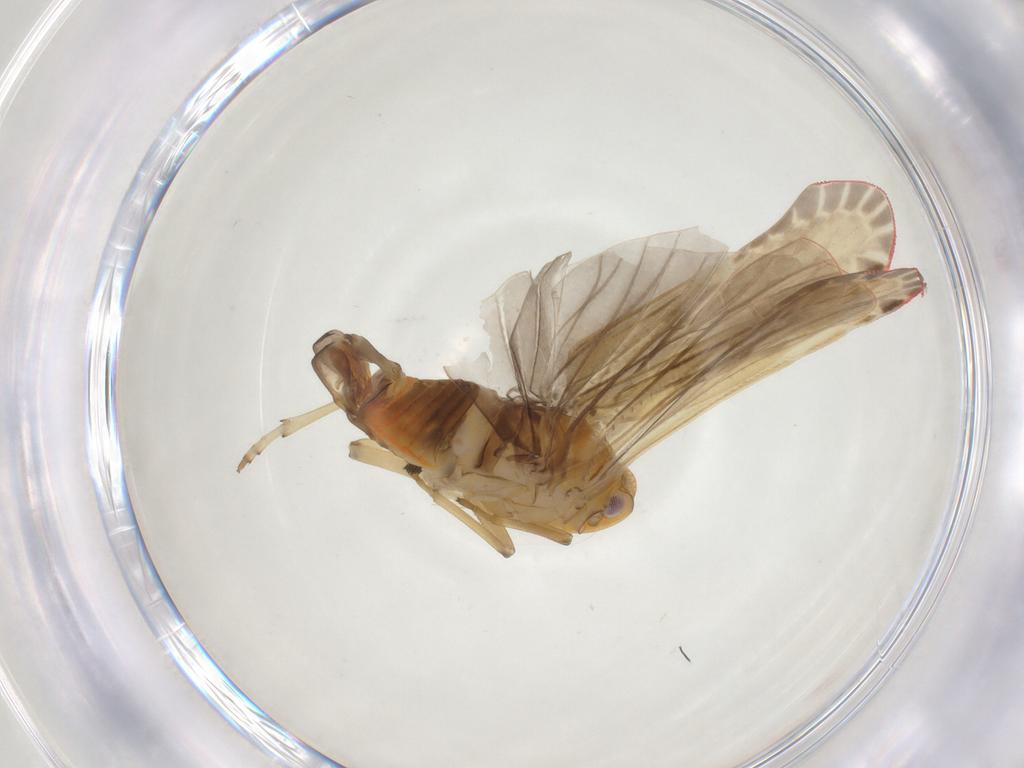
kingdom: Animalia
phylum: Arthropoda
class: Insecta
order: Hemiptera
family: Derbidae
